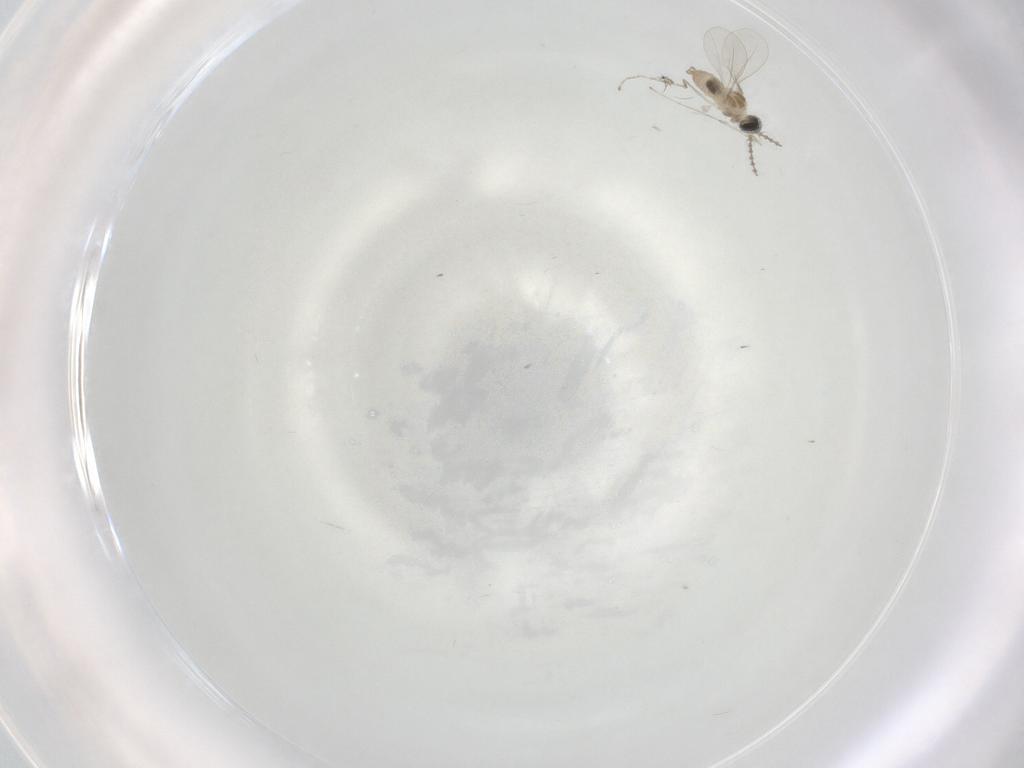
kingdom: Animalia
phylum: Arthropoda
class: Insecta
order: Diptera
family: Cecidomyiidae
